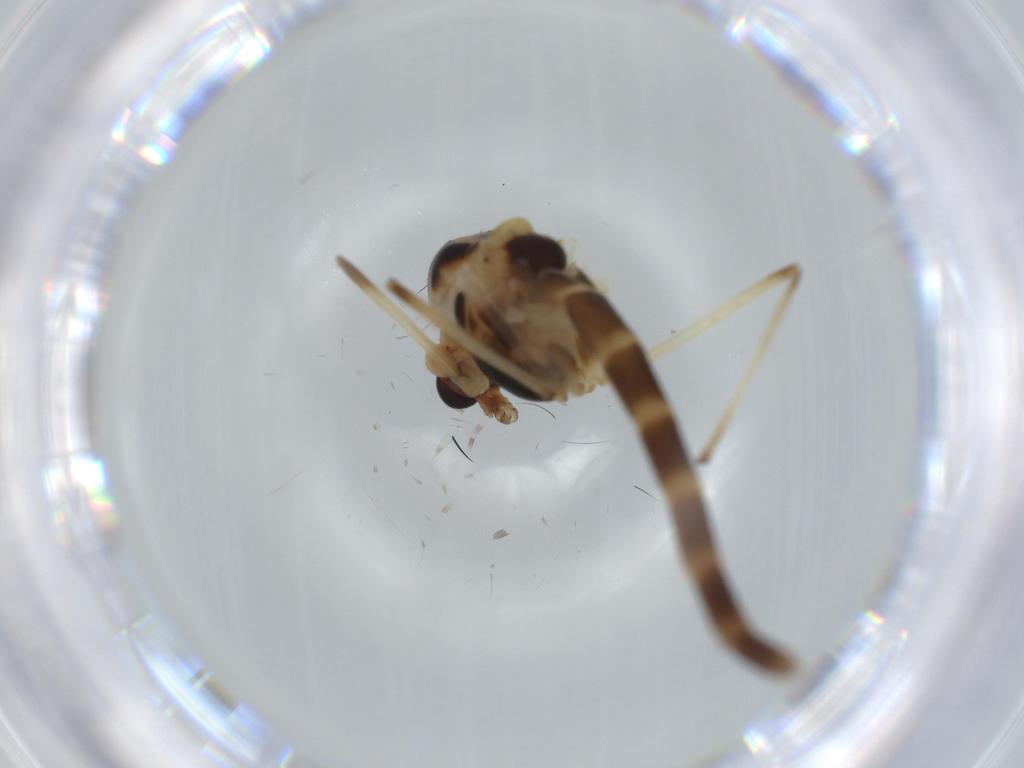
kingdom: Animalia
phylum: Arthropoda
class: Insecta
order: Diptera
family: Chironomidae
